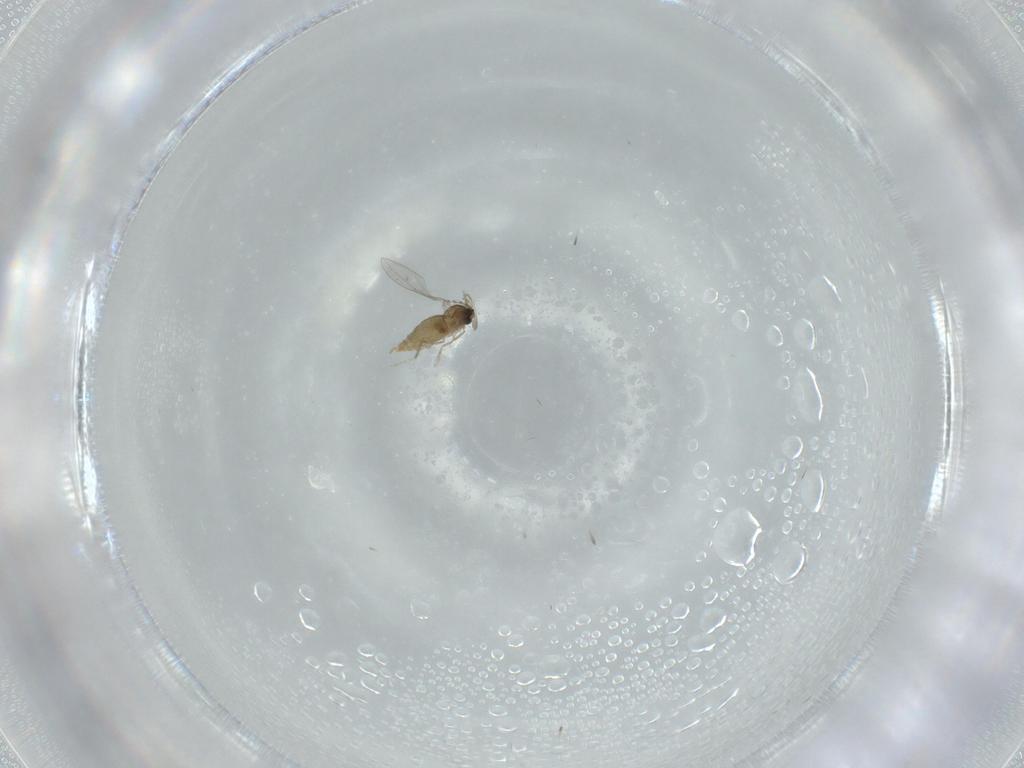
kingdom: Animalia
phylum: Arthropoda
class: Insecta
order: Diptera
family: Cecidomyiidae
